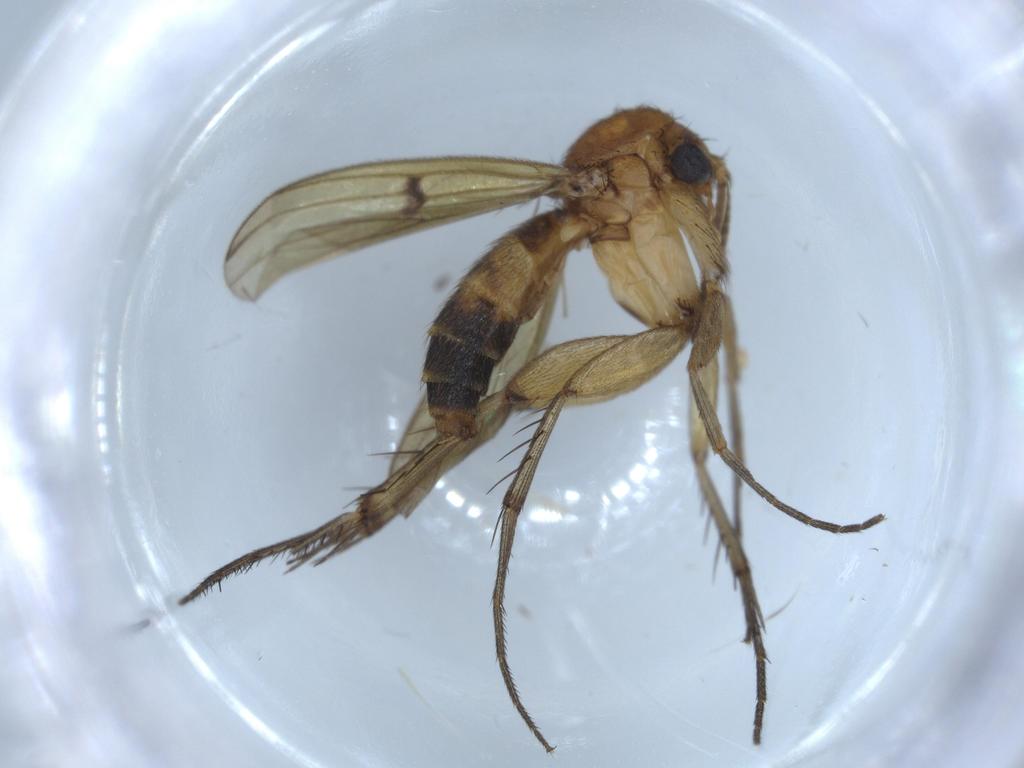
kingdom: Animalia
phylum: Arthropoda
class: Insecta
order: Diptera
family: Chironomidae
